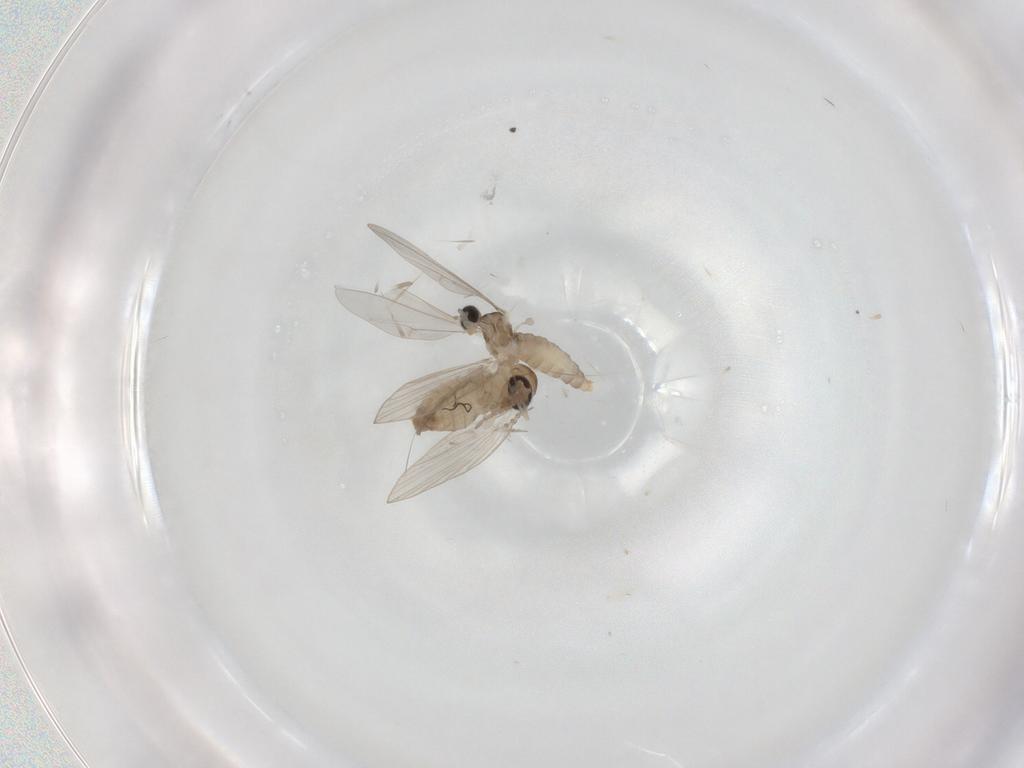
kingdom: Animalia
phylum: Arthropoda
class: Insecta
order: Diptera
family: Cecidomyiidae
